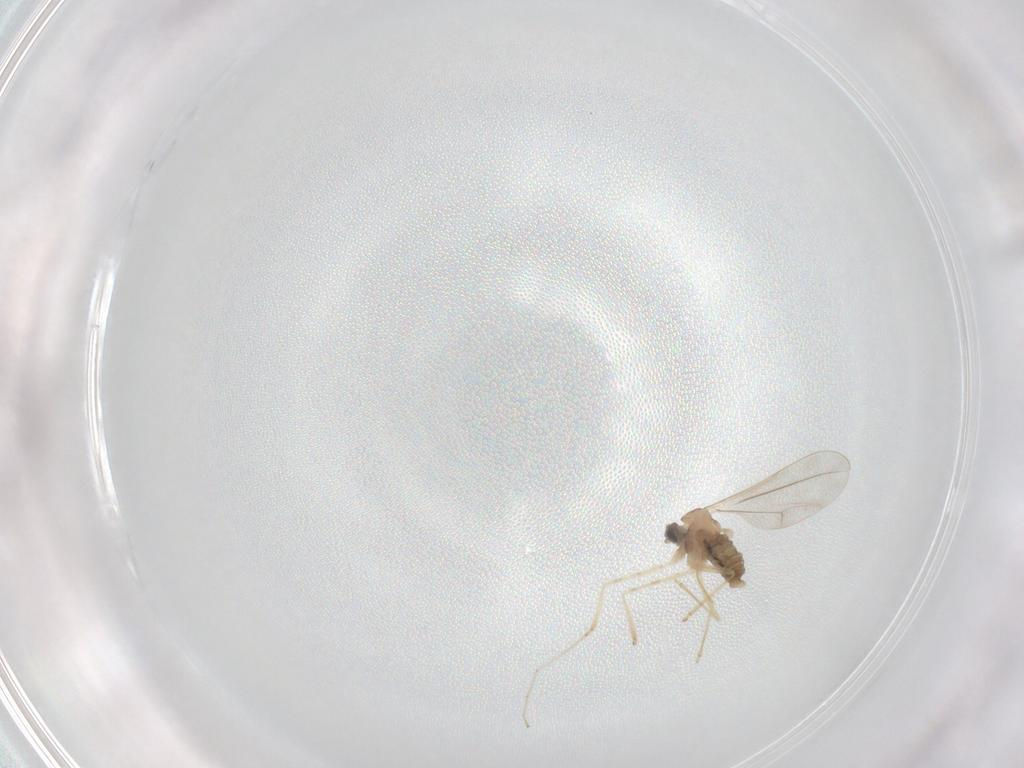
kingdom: Animalia
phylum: Arthropoda
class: Insecta
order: Diptera
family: Cecidomyiidae
